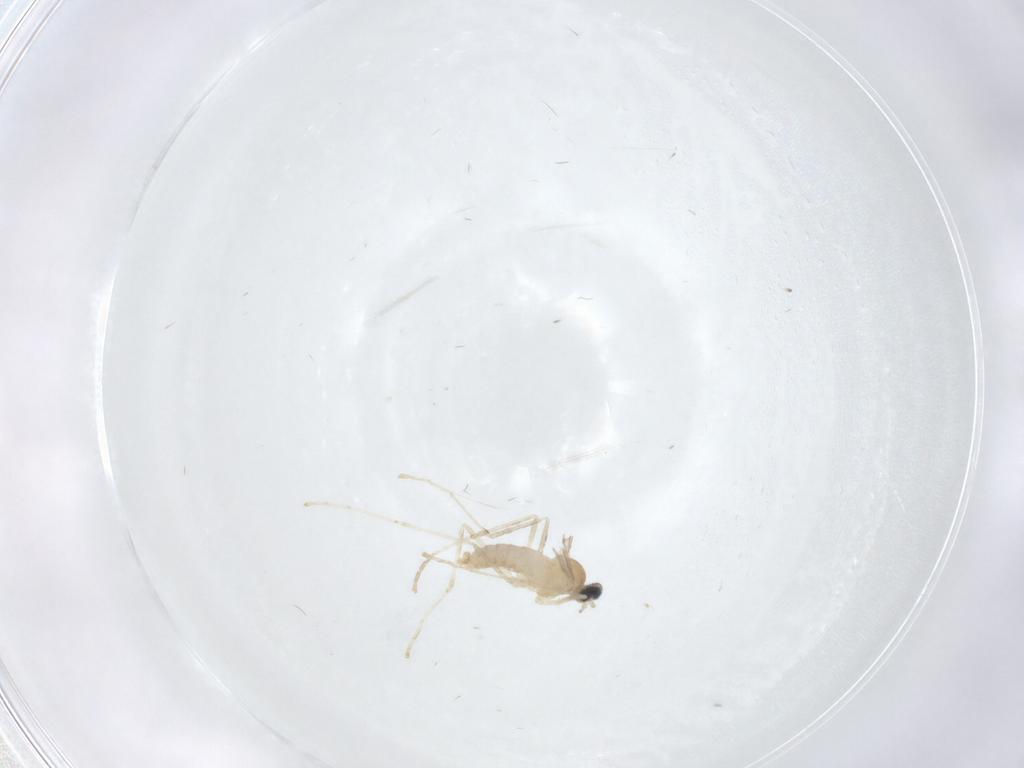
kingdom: Animalia
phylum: Arthropoda
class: Insecta
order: Diptera
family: Cecidomyiidae
